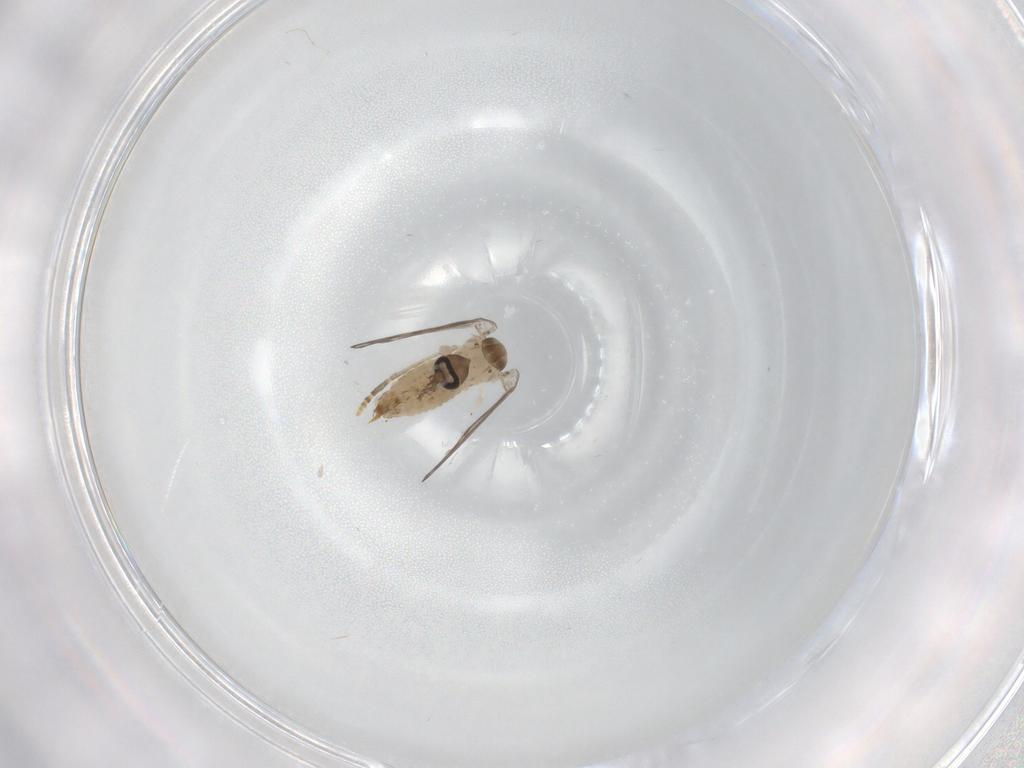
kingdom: Animalia
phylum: Arthropoda
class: Insecta
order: Diptera
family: Psychodidae
